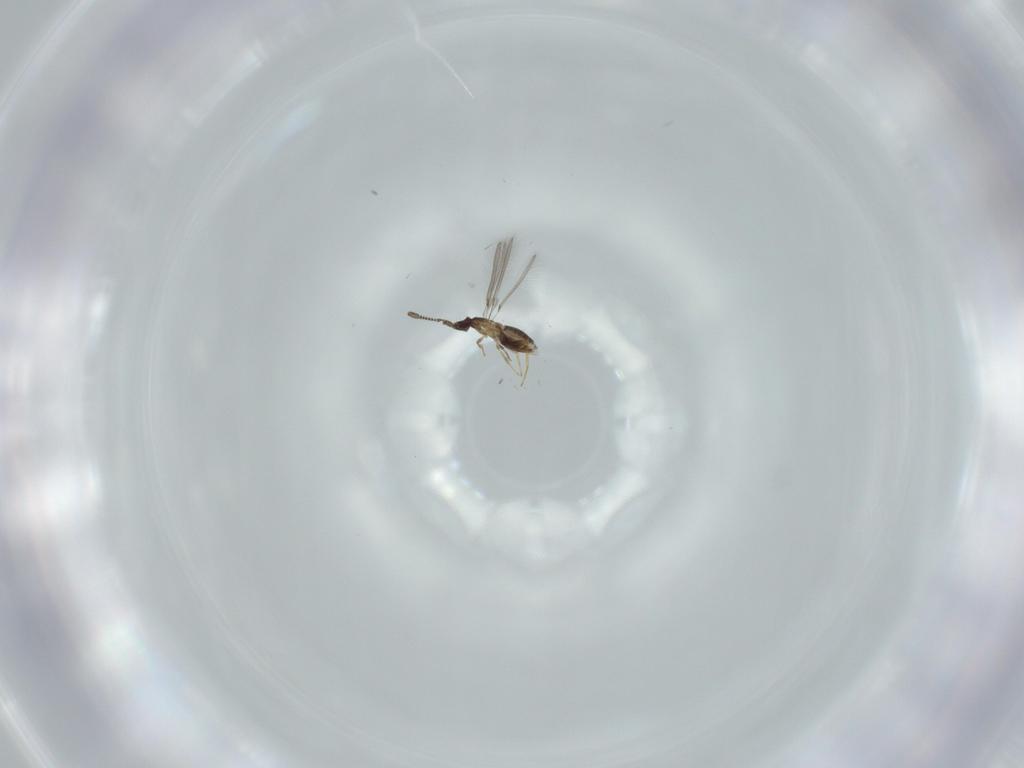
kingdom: Animalia
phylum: Arthropoda
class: Insecta
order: Hymenoptera
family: Mymaridae
